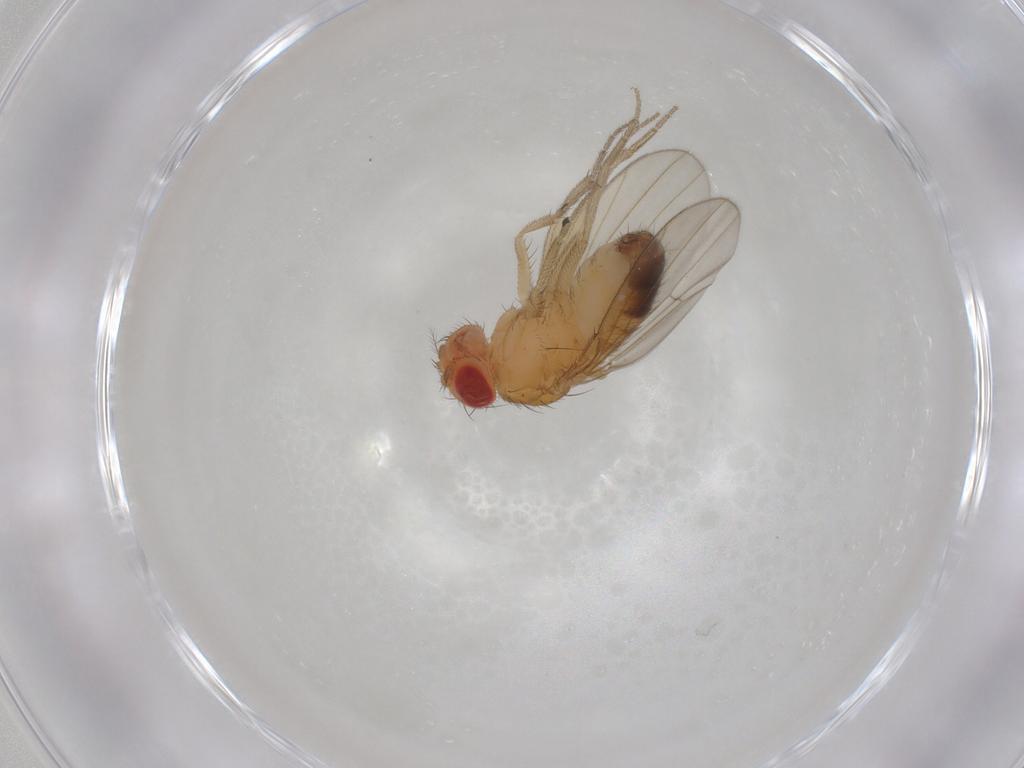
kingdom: Animalia
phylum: Arthropoda
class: Insecta
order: Diptera
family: Drosophilidae
